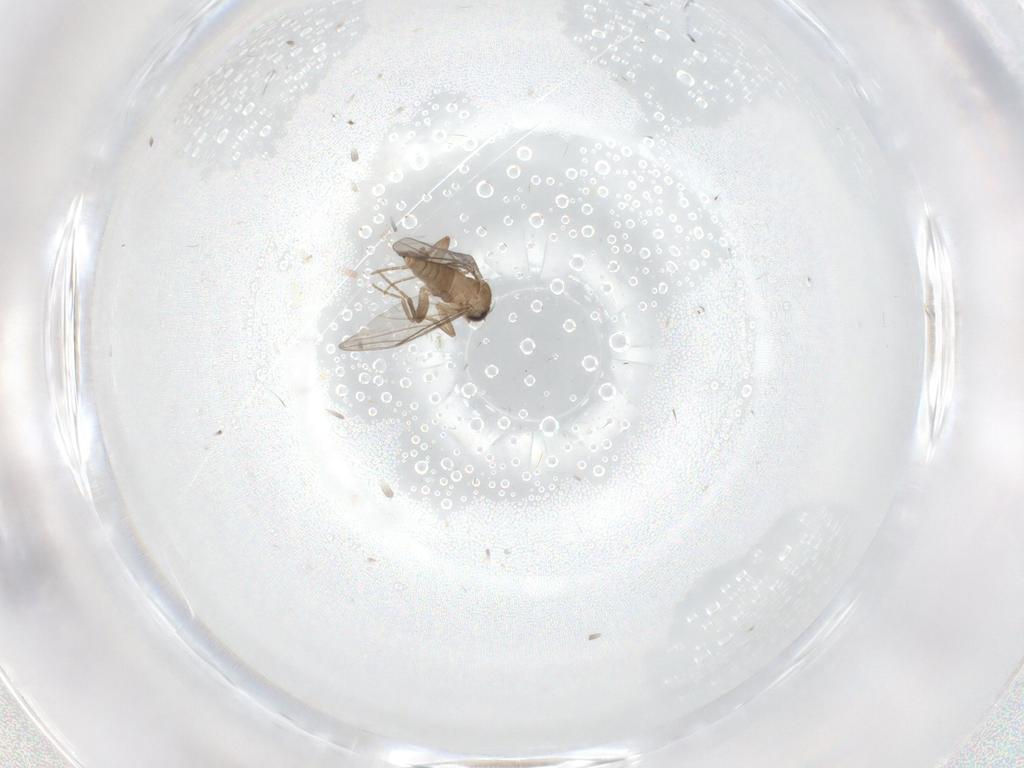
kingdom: Animalia
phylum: Arthropoda
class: Insecta
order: Diptera
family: Psychodidae
